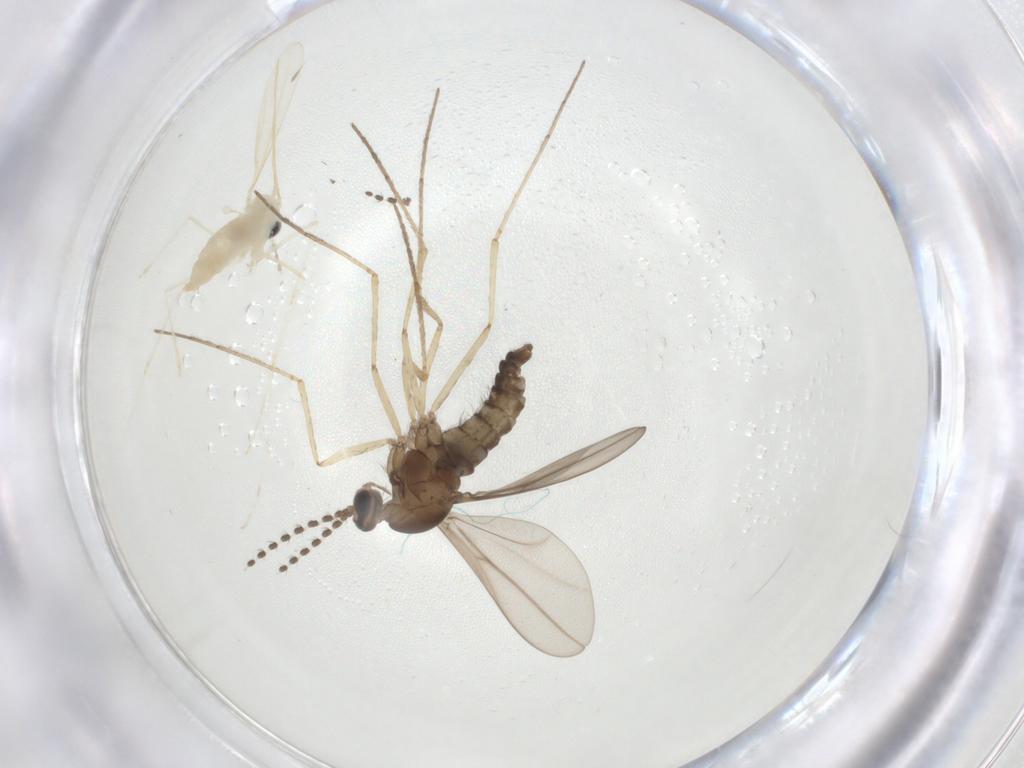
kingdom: Animalia
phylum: Arthropoda
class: Insecta
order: Diptera
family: Cecidomyiidae
